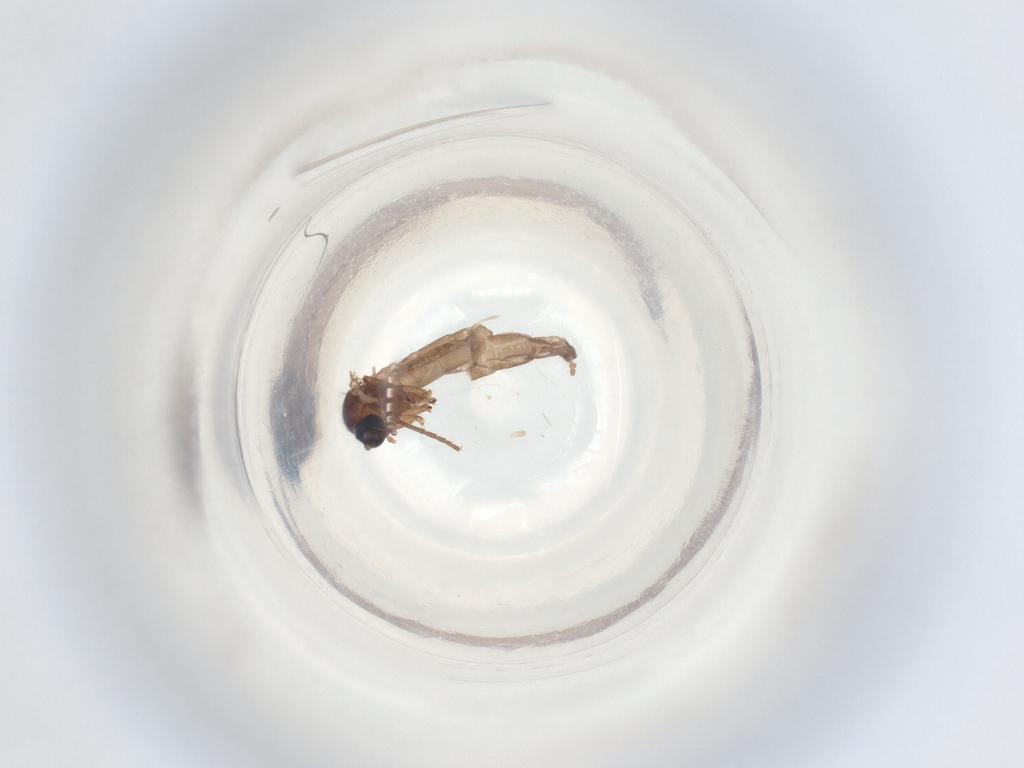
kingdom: Animalia
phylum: Arthropoda
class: Insecta
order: Diptera
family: Sciaridae
